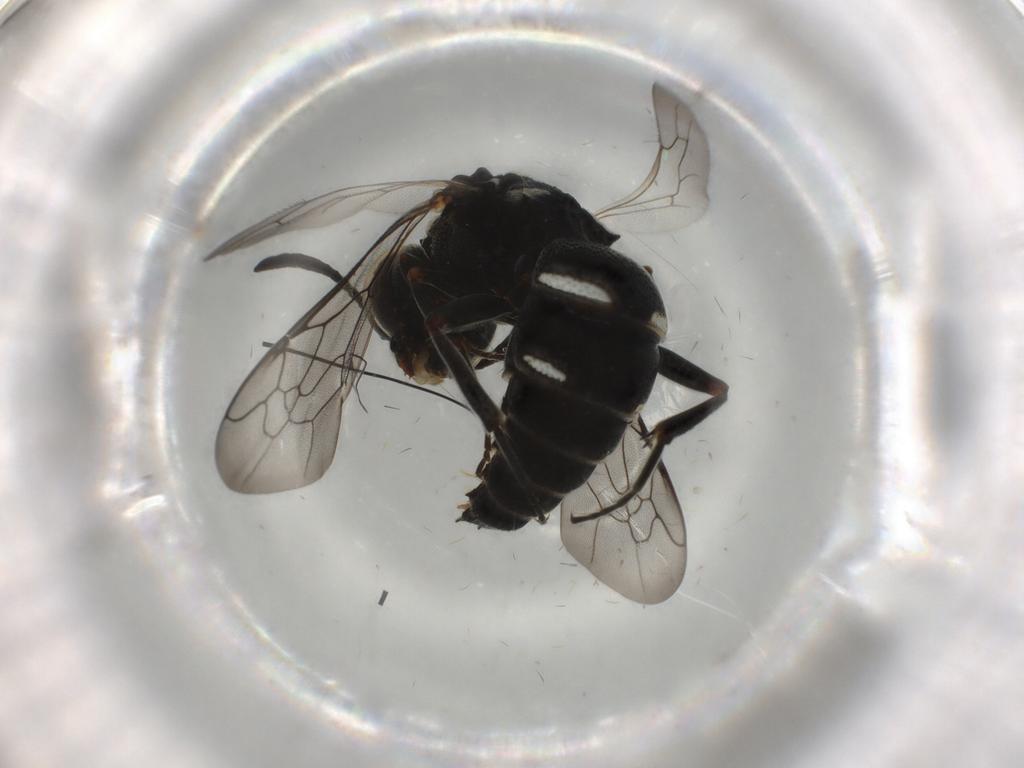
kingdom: Animalia
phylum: Arthropoda
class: Insecta
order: Hymenoptera
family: Bembicidae
